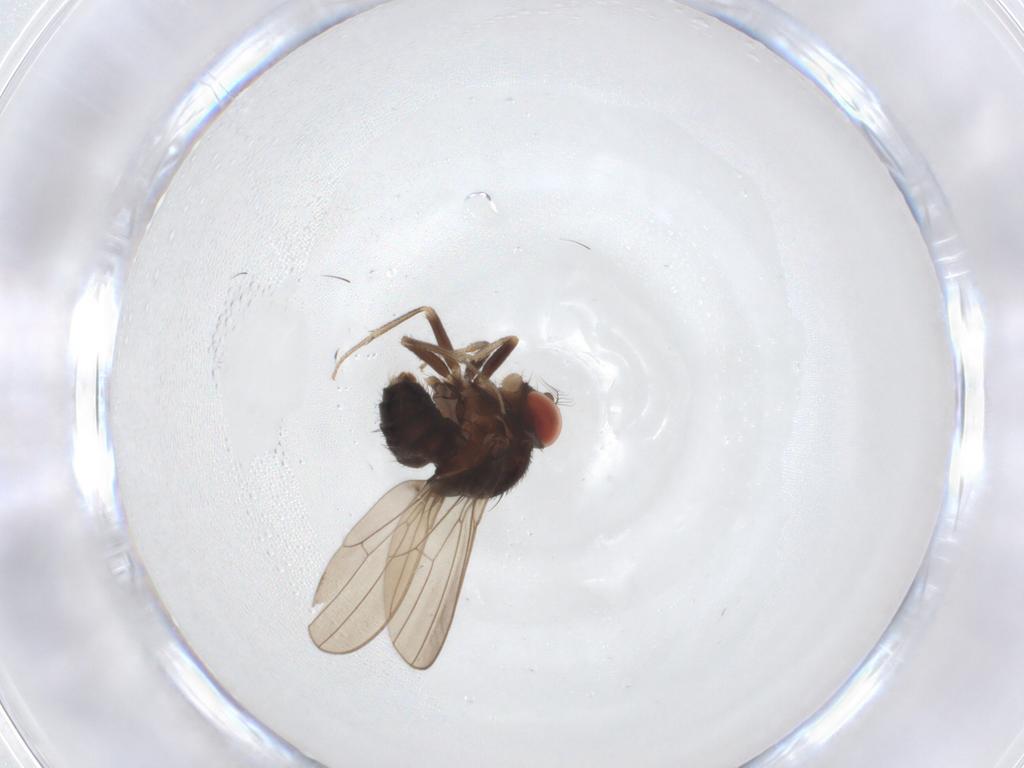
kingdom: Animalia
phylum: Arthropoda
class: Insecta
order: Diptera
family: Drosophilidae
